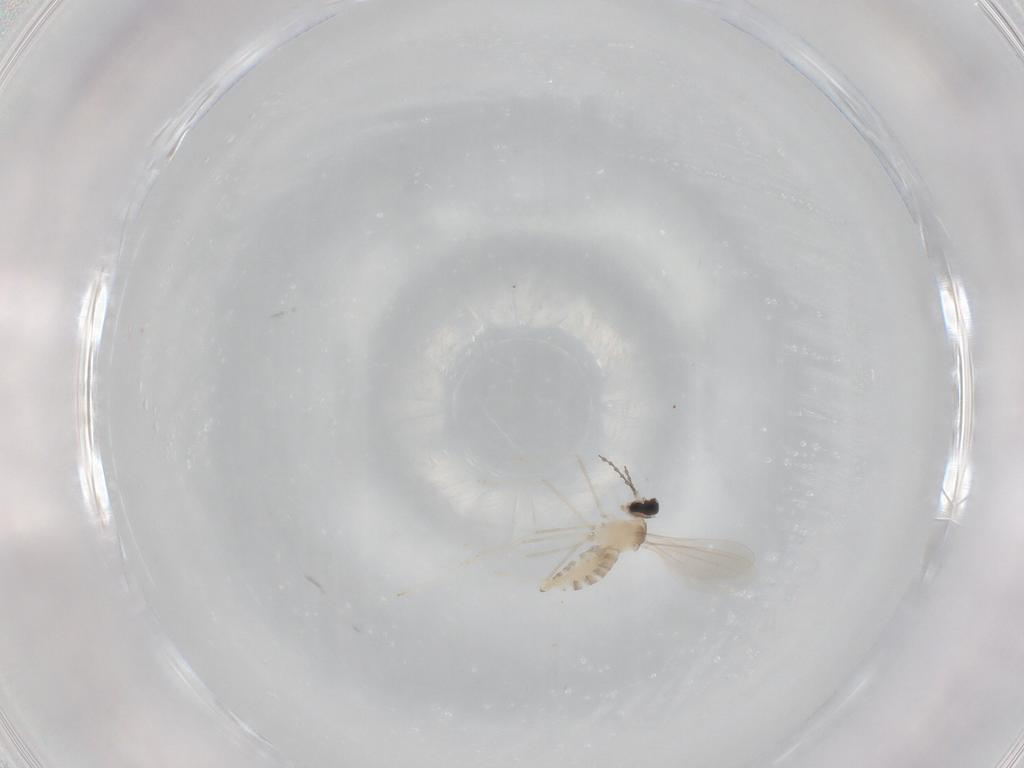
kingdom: Animalia
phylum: Arthropoda
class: Insecta
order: Diptera
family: Cecidomyiidae
